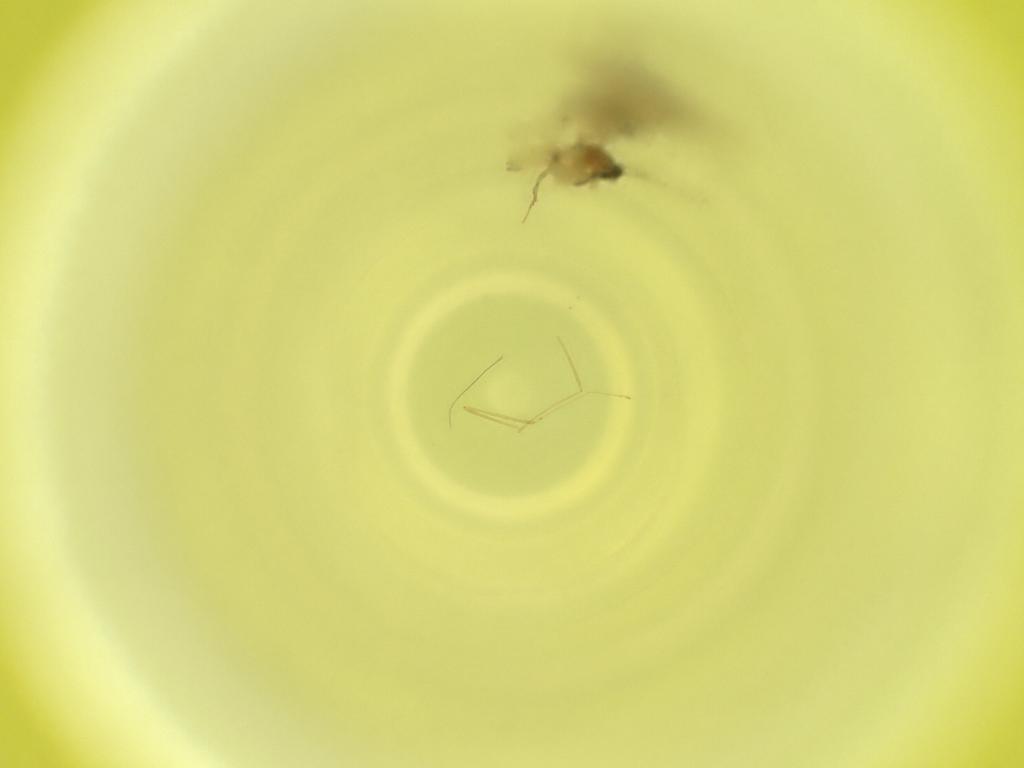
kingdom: Animalia
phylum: Arthropoda
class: Insecta
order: Diptera
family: Cecidomyiidae
